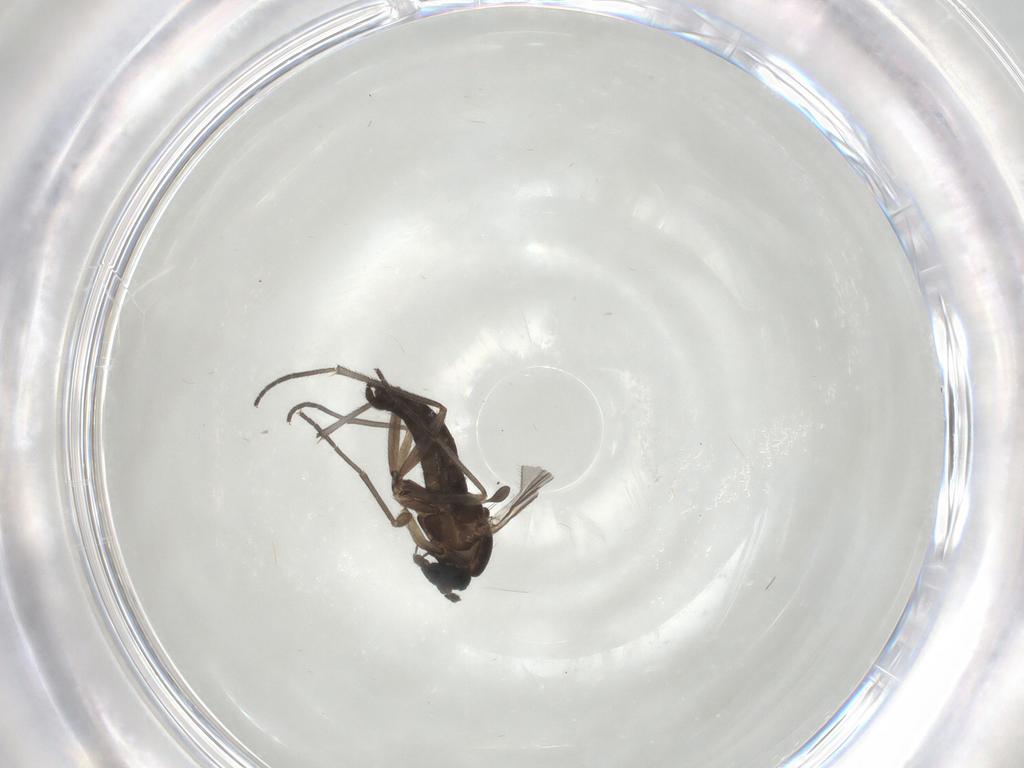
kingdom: Animalia
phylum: Arthropoda
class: Insecta
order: Diptera
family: Sciaridae
